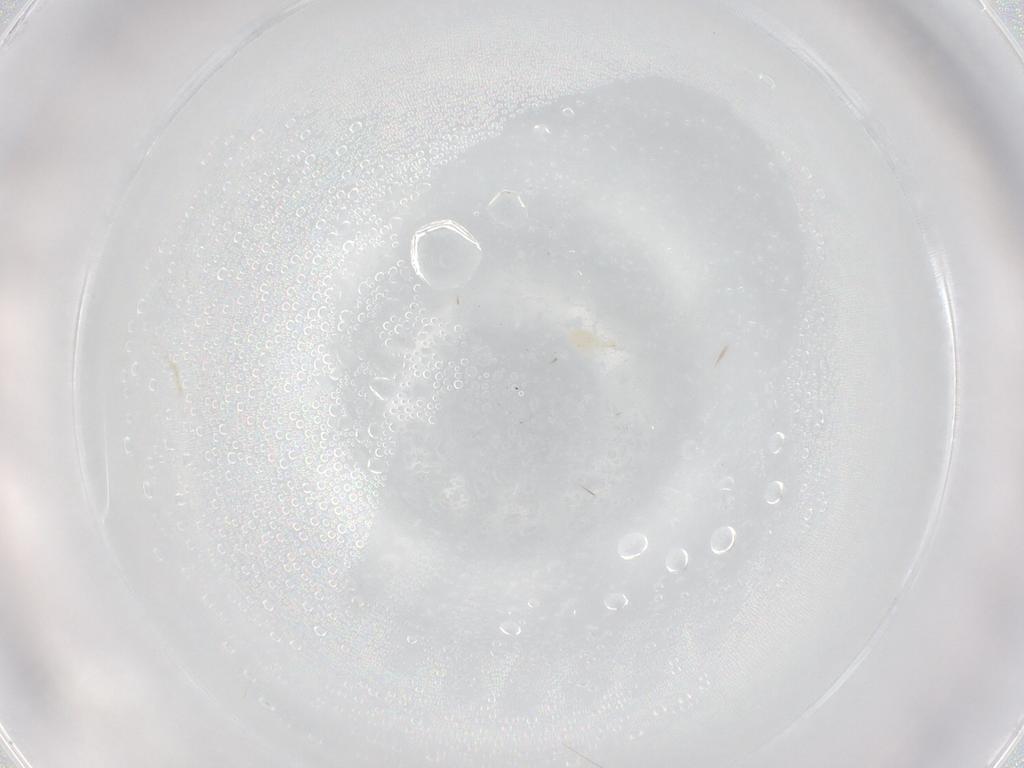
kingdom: Animalia
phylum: Arthropoda
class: Arachnida
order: Trombidiformes
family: Cunaxidae
